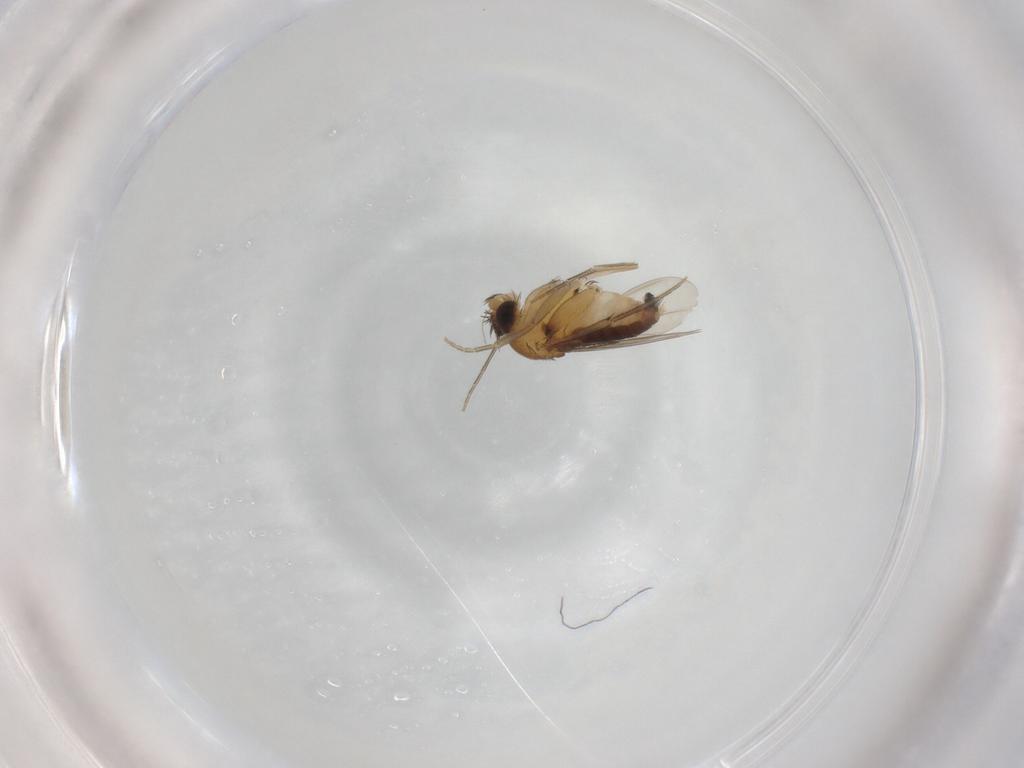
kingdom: Animalia
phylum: Arthropoda
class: Insecta
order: Diptera
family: Phoridae
